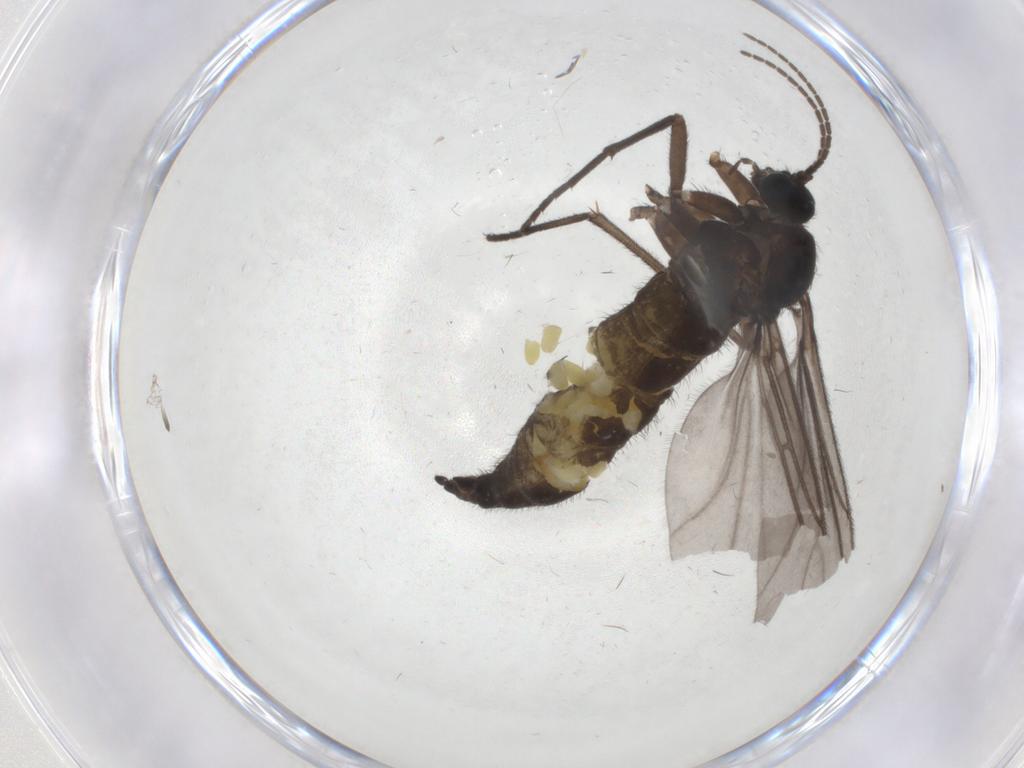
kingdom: Animalia
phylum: Arthropoda
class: Insecta
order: Diptera
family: Sciaridae
